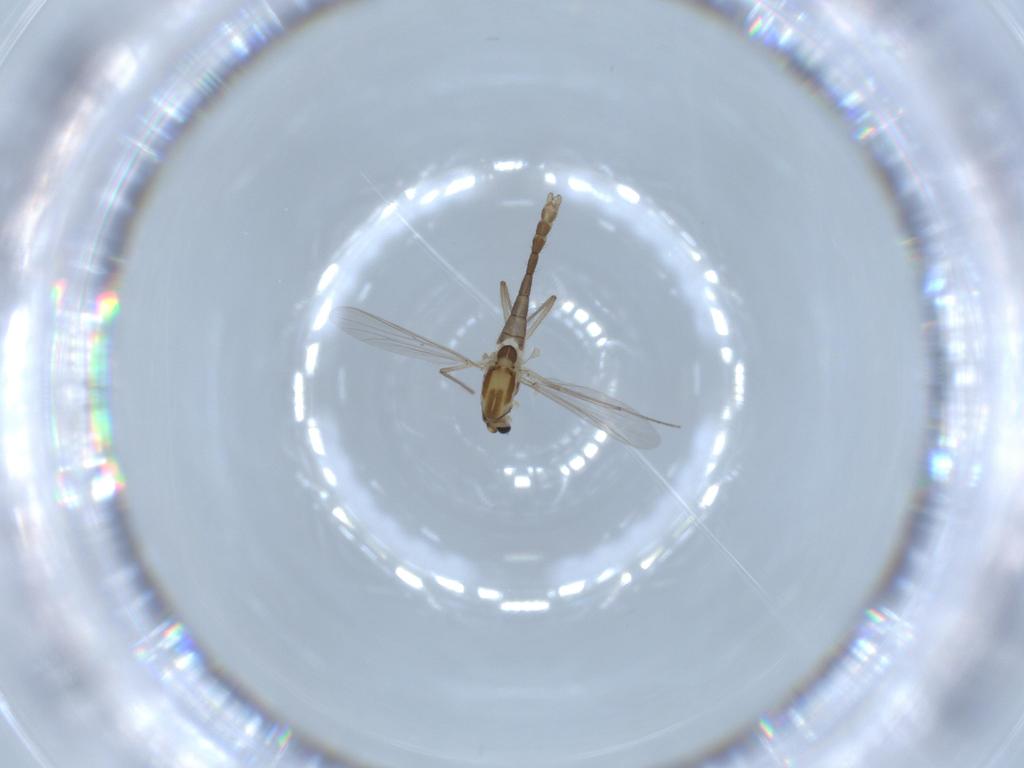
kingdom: Animalia
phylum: Arthropoda
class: Insecta
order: Diptera
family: Chironomidae
